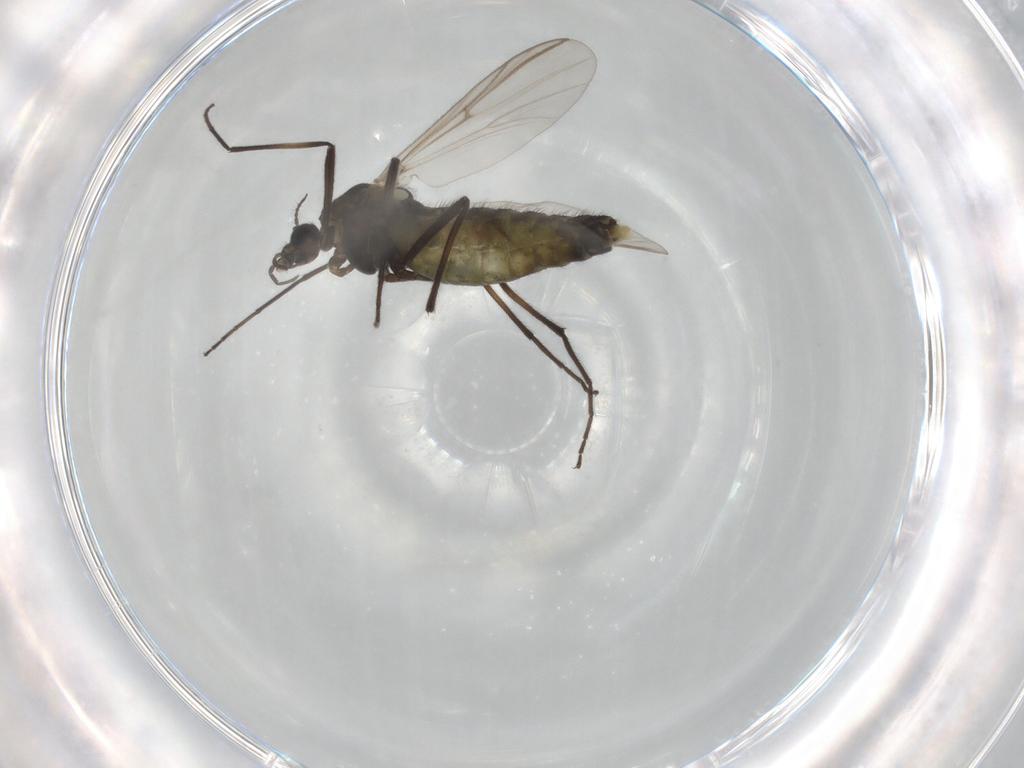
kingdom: Animalia
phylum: Arthropoda
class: Insecta
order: Diptera
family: Chironomidae
